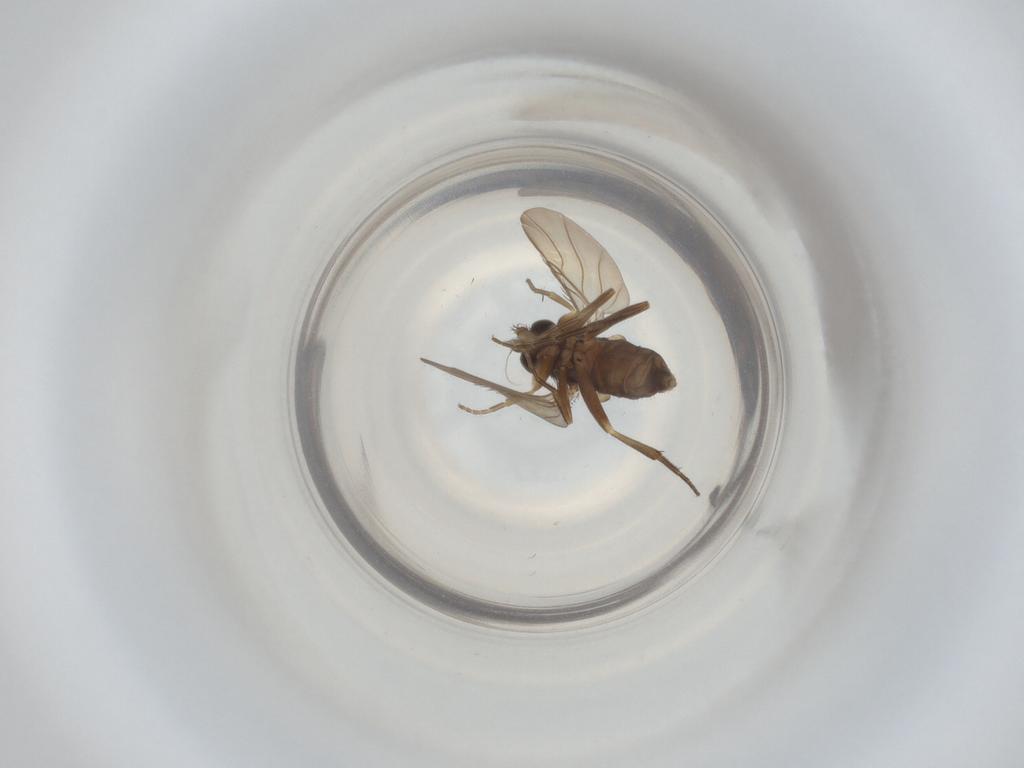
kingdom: Animalia
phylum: Arthropoda
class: Insecta
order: Diptera
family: Phoridae
